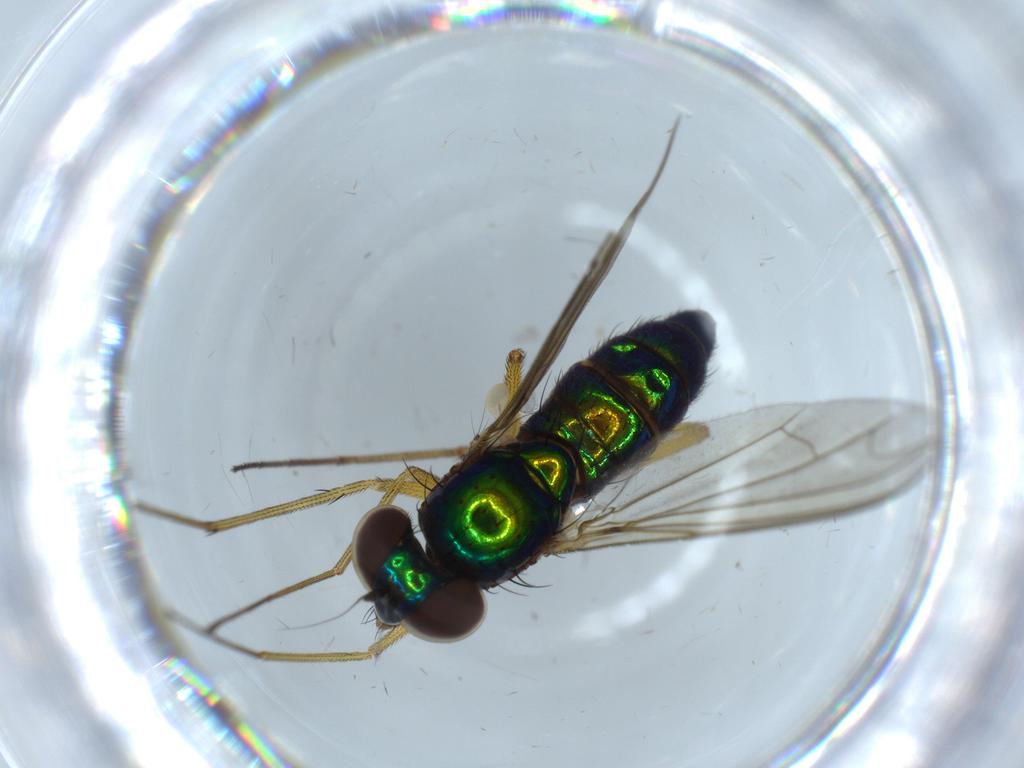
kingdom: Animalia
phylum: Arthropoda
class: Insecta
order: Diptera
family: Dolichopodidae
